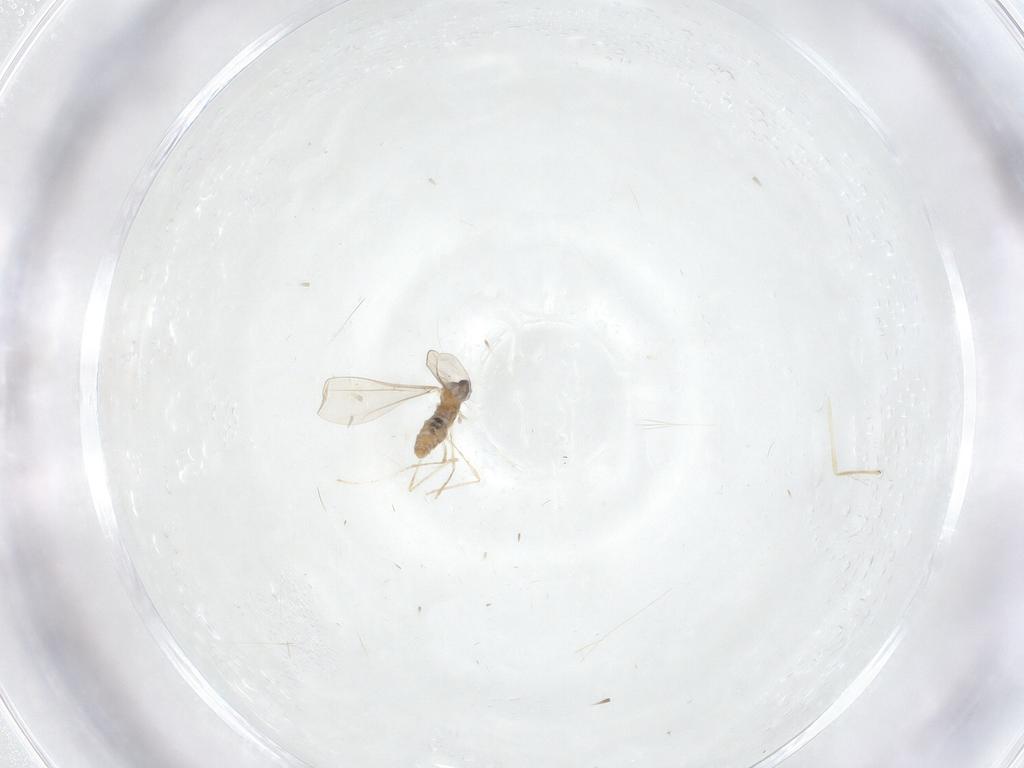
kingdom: Animalia
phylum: Arthropoda
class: Insecta
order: Diptera
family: Cecidomyiidae
